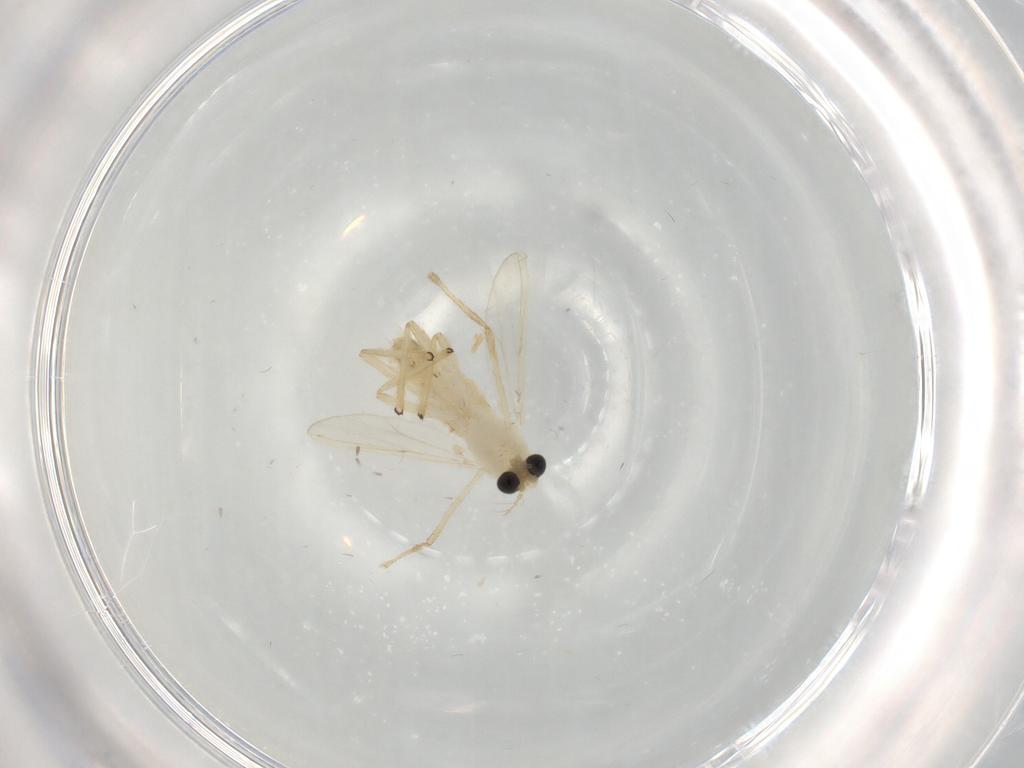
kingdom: Animalia
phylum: Arthropoda
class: Insecta
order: Diptera
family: Chironomidae
